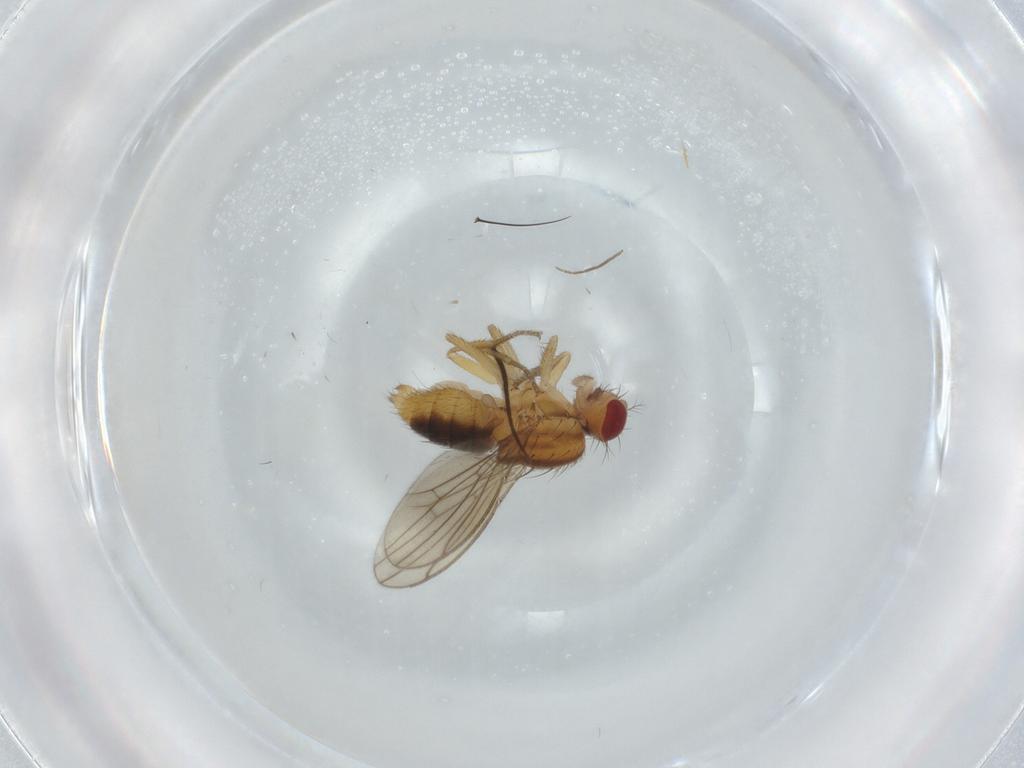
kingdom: Animalia
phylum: Arthropoda
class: Insecta
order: Diptera
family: Drosophilidae
